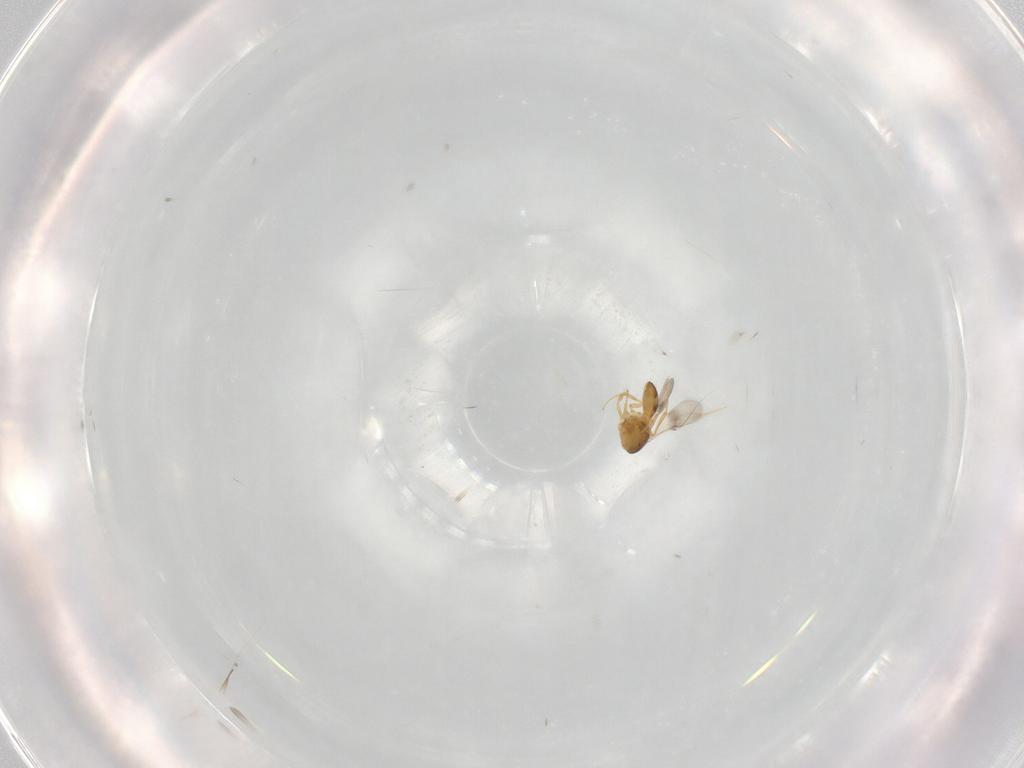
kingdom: Animalia
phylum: Arthropoda
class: Insecta
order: Hymenoptera
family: Scelionidae
